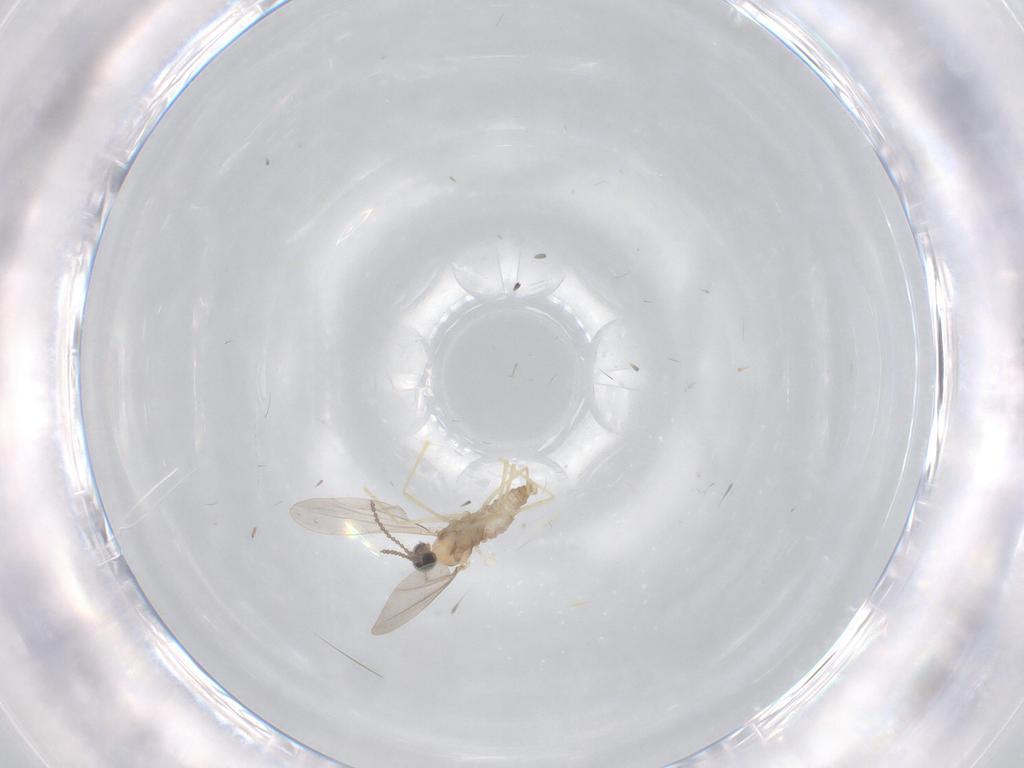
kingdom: Animalia
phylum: Arthropoda
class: Insecta
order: Diptera
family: Cecidomyiidae
